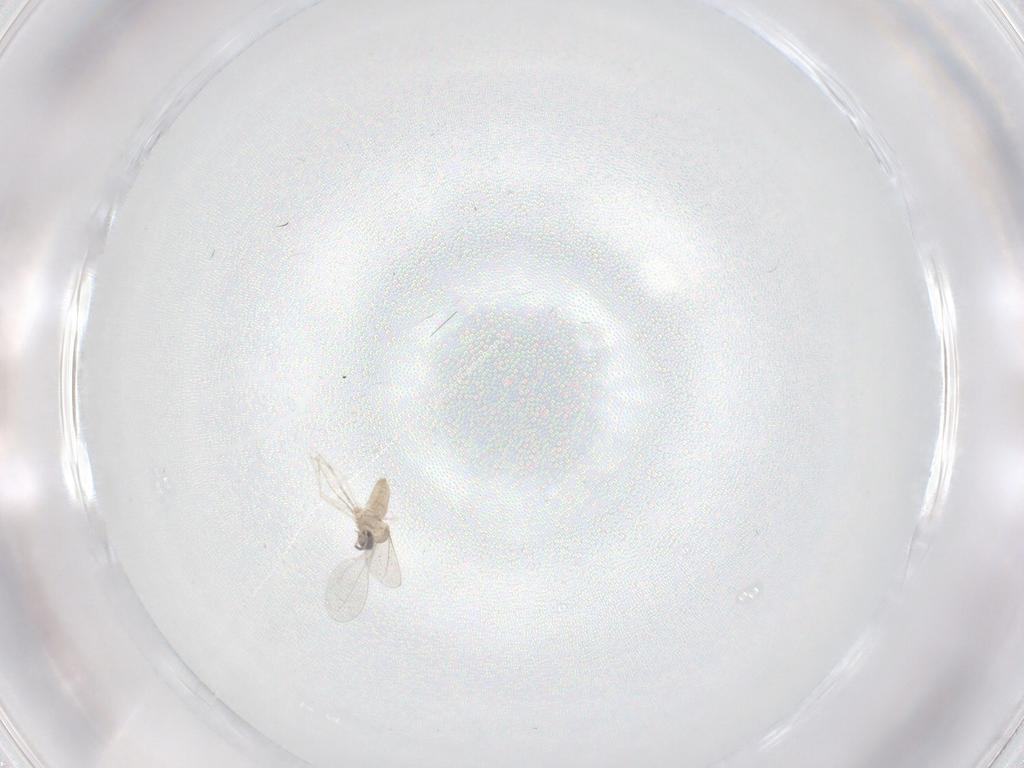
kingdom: Animalia
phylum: Arthropoda
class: Insecta
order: Diptera
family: Cecidomyiidae
